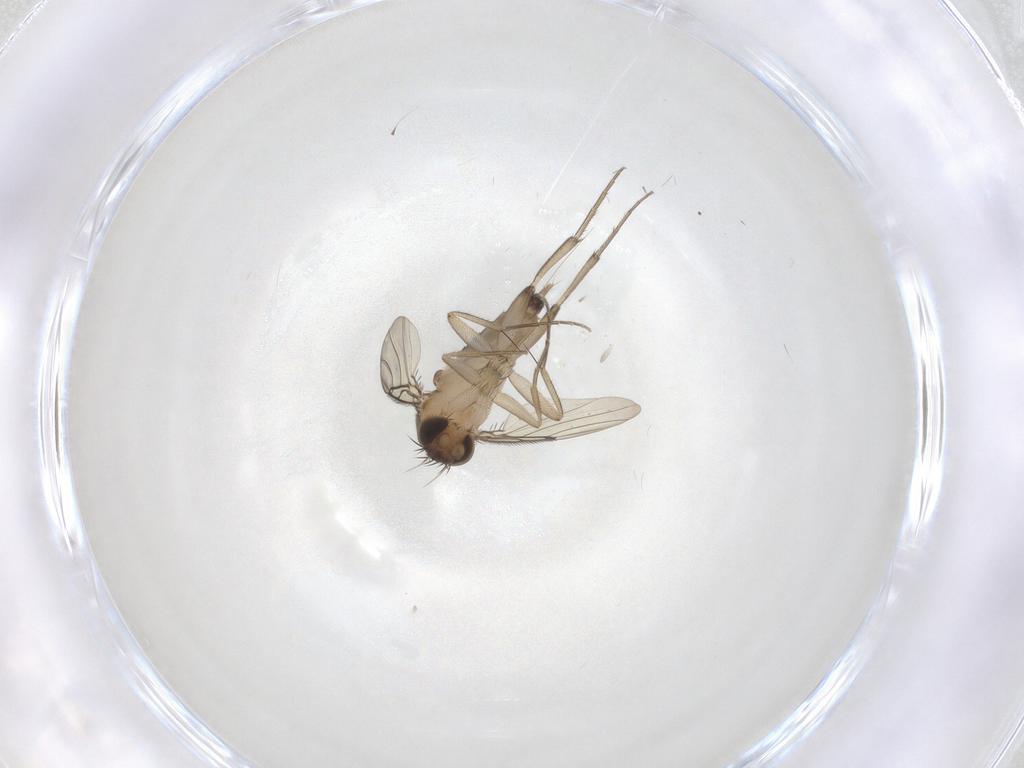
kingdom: Animalia
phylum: Arthropoda
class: Insecta
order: Diptera
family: Phoridae
